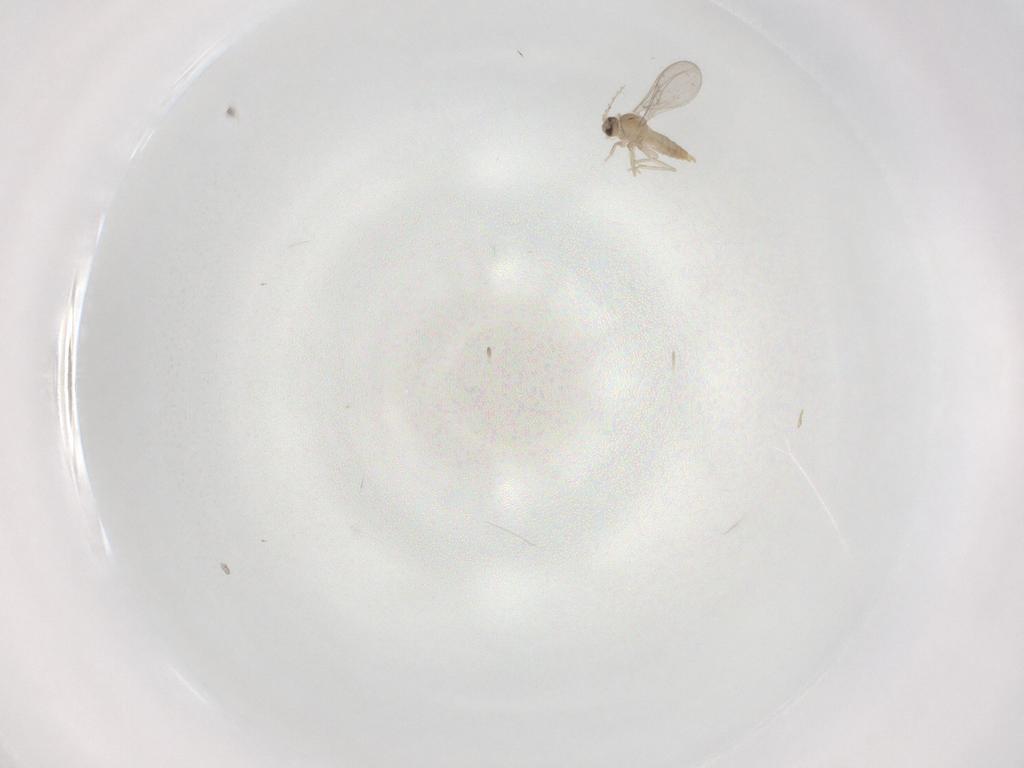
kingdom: Animalia
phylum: Arthropoda
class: Insecta
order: Diptera
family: Cecidomyiidae
